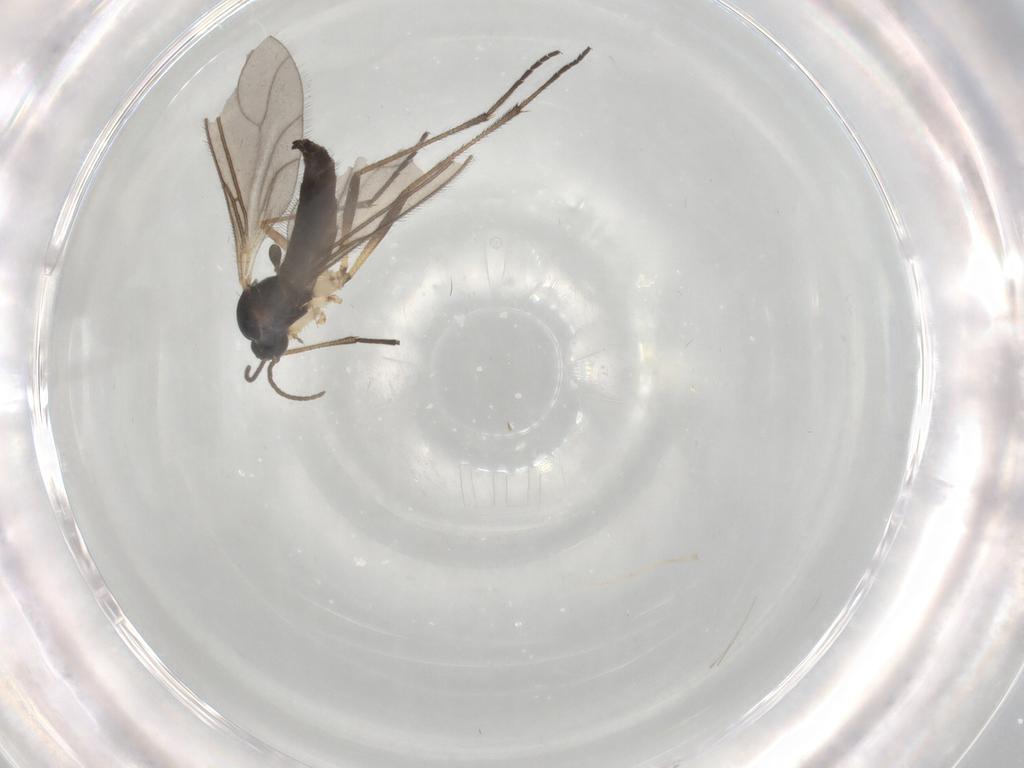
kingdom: Animalia
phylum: Arthropoda
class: Insecta
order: Diptera
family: Sciaridae
